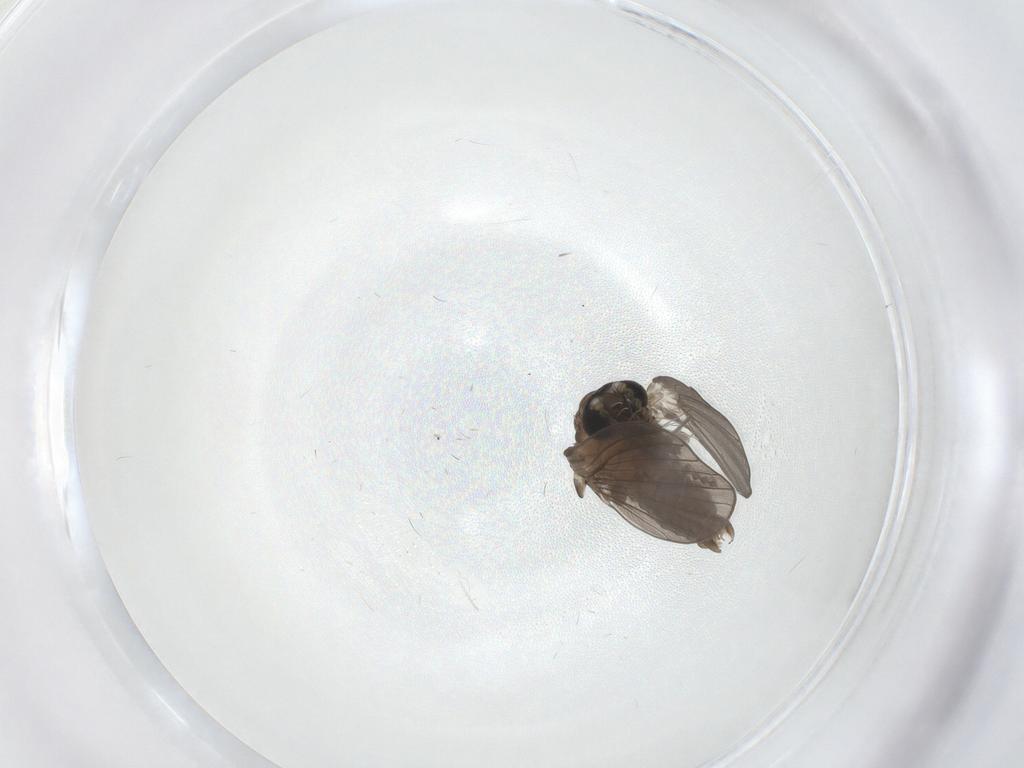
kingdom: Animalia
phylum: Arthropoda
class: Insecta
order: Diptera
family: Psychodidae
